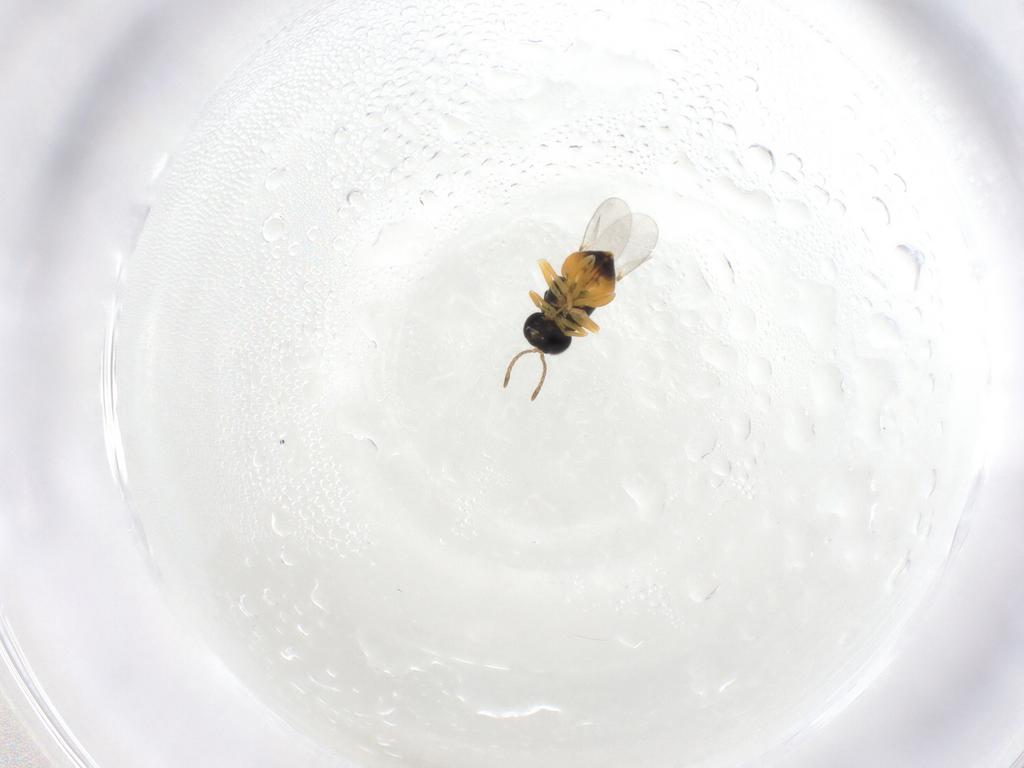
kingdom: Animalia
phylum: Arthropoda
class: Insecta
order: Hymenoptera
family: Encyrtidae
